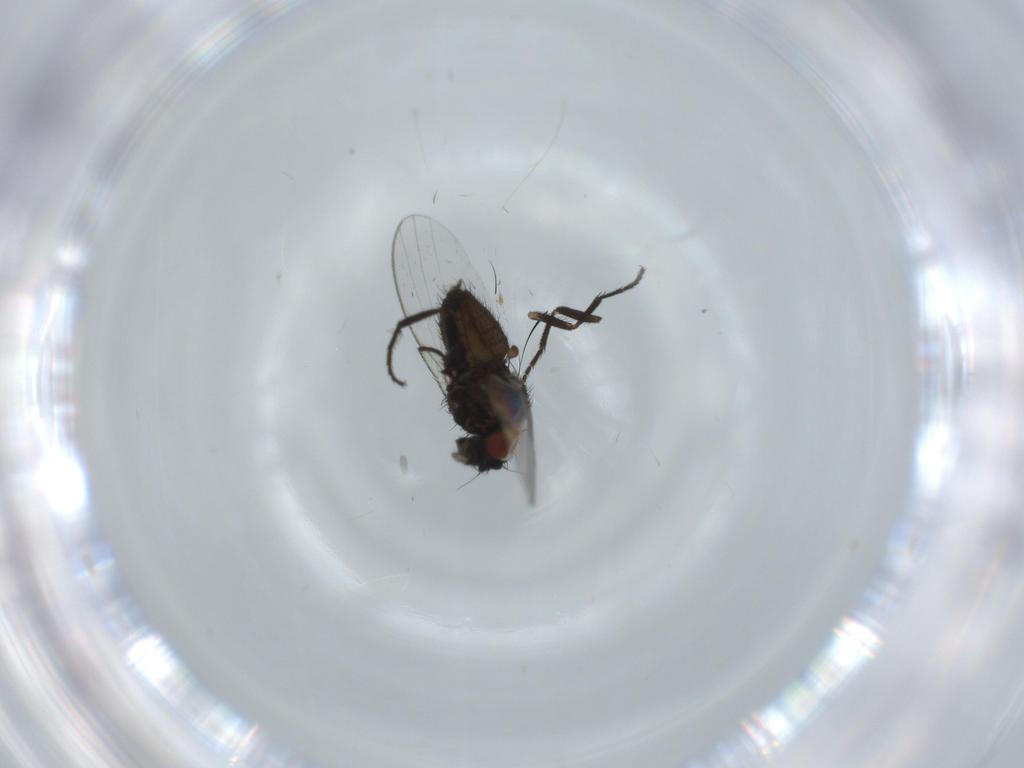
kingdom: Animalia
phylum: Arthropoda
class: Insecta
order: Diptera
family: Milichiidae
